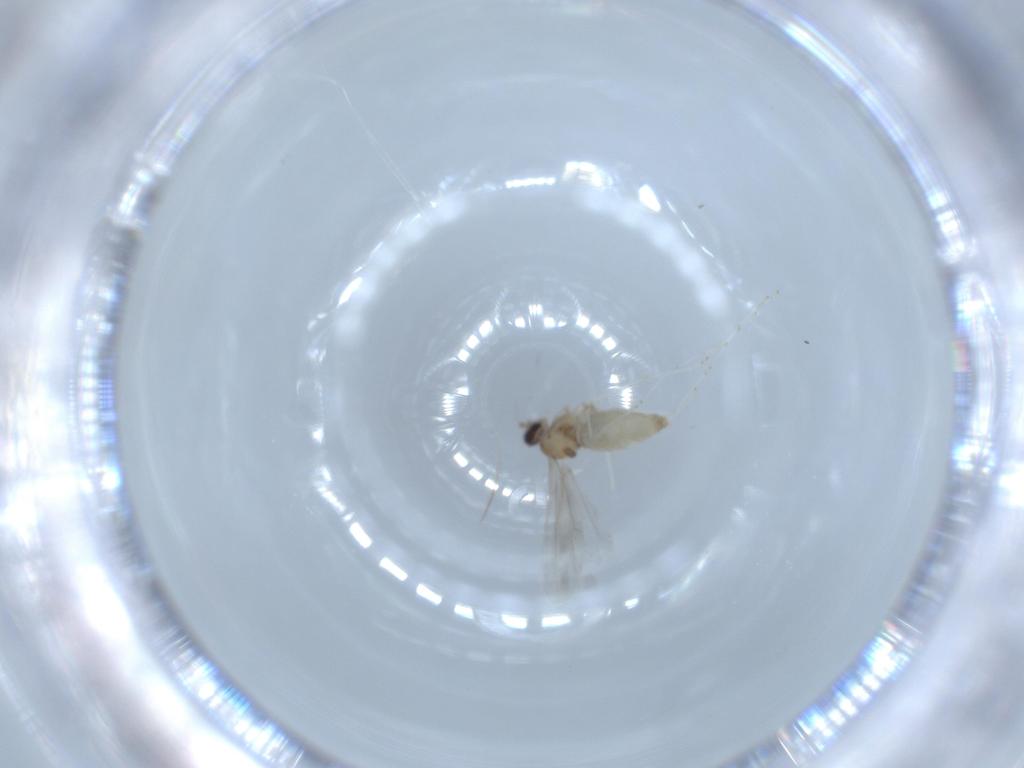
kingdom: Animalia
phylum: Arthropoda
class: Insecta
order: Diptera
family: Cecidomyiidae
